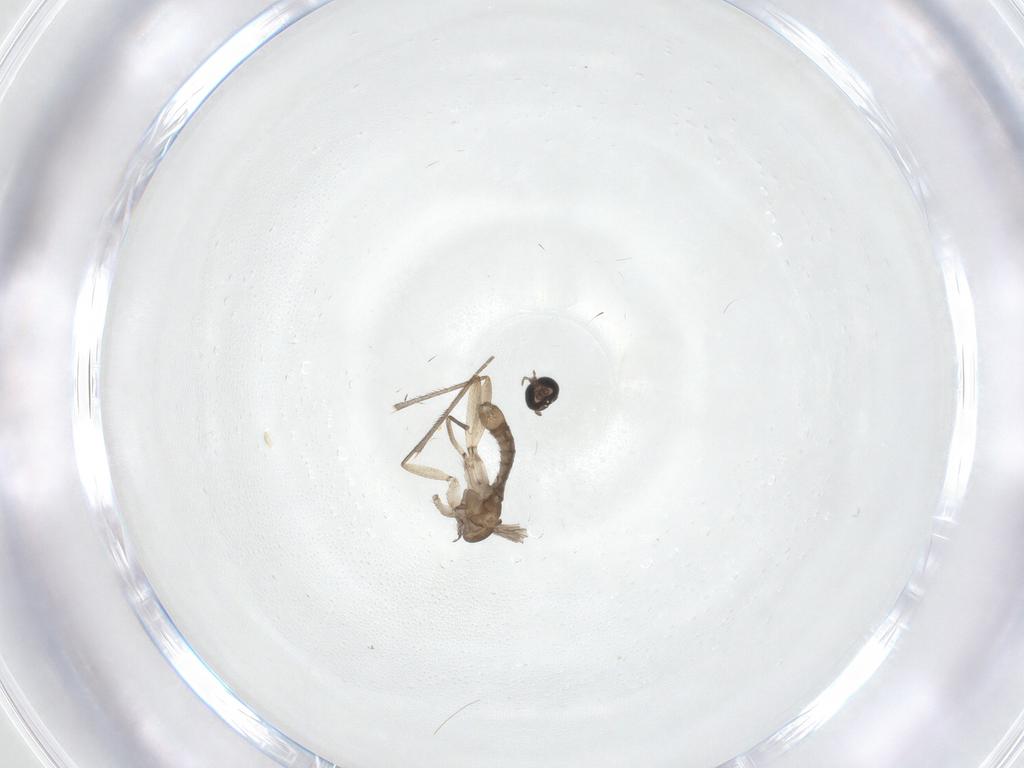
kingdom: Animalia
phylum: Arthropoda
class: Insecta
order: Diptera
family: Sciaridae
